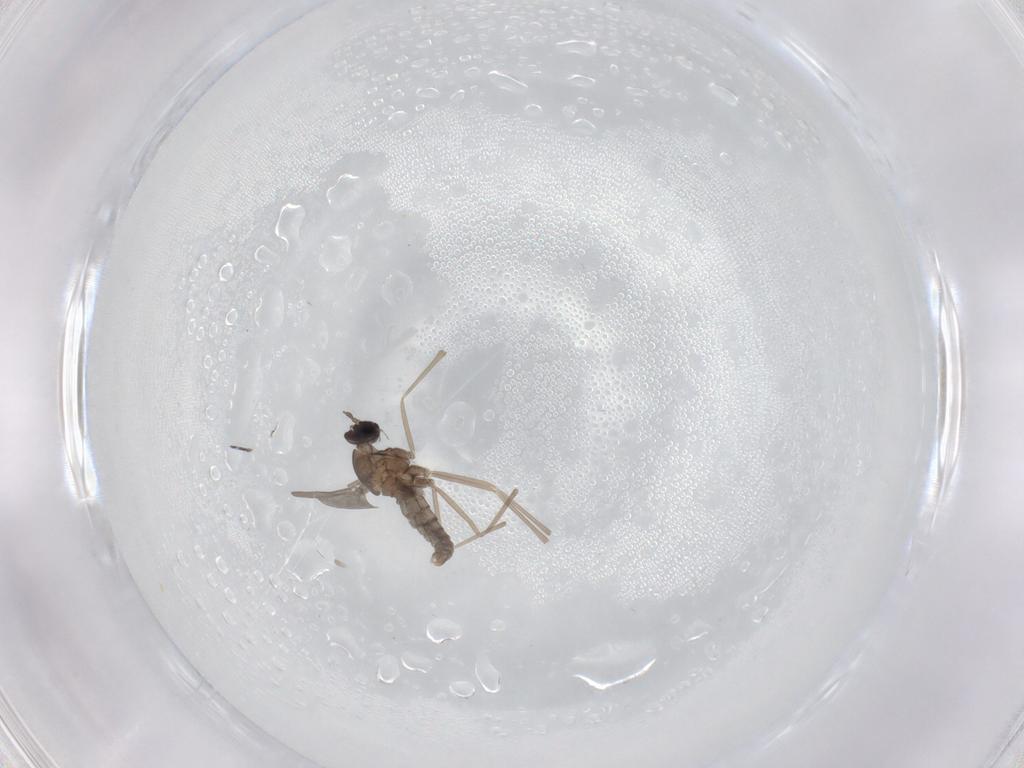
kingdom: Animalia
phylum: Arthropoda
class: Insecta
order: Diptera
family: Cecidomyiidae
